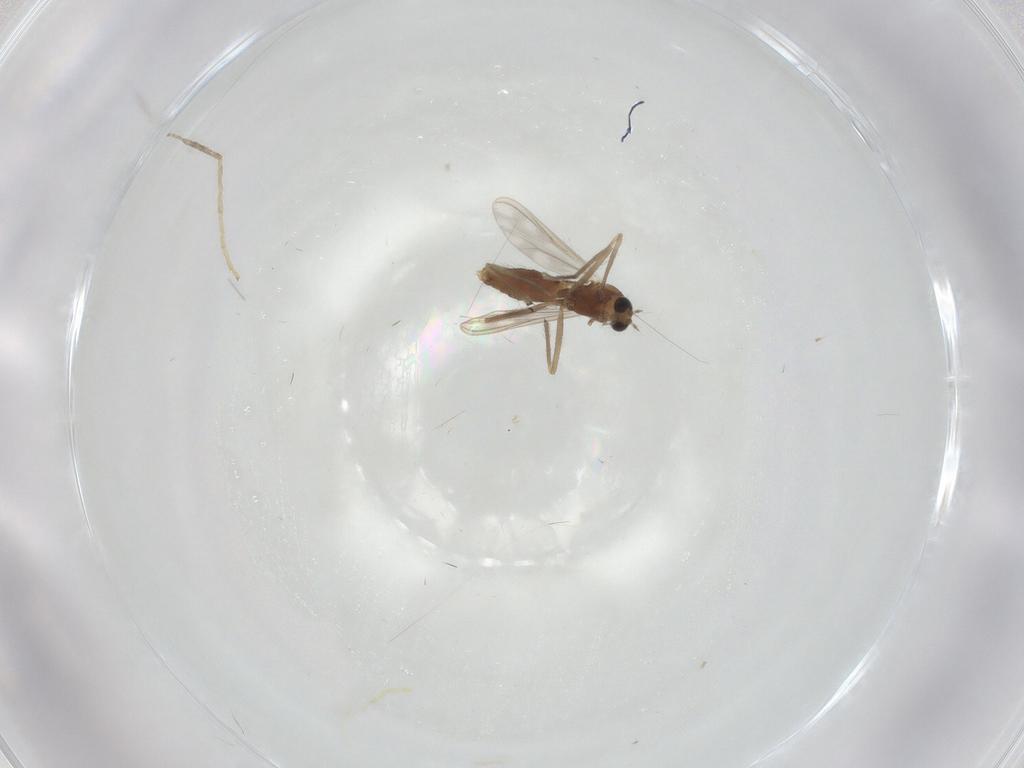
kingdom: Animalia
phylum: Arthropoda
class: Insecta
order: Diptera
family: Chironomidae
